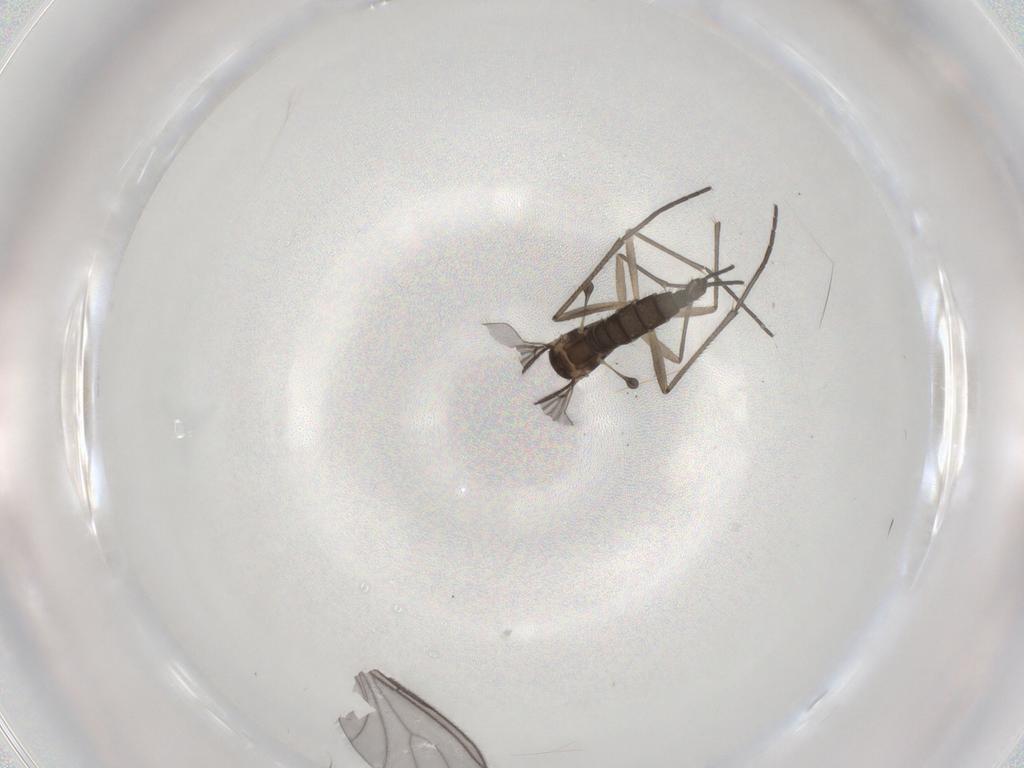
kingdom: Animalia
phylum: Arthropoda
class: Insecta
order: Diptera
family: Sciaridae
